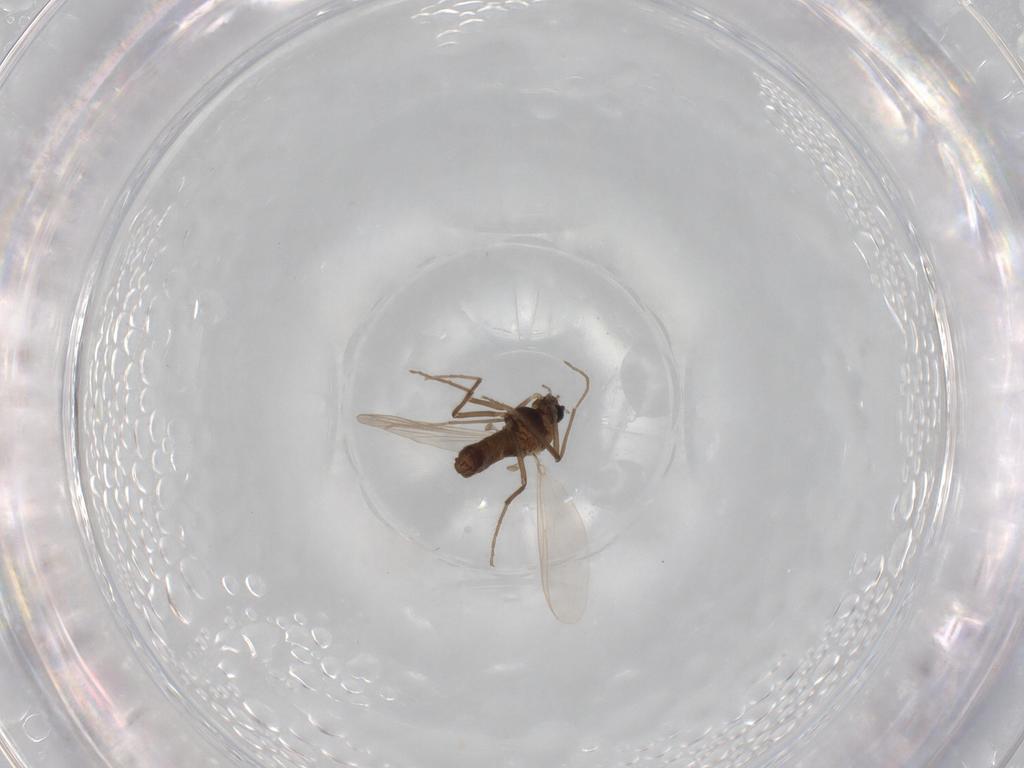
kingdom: Animalia
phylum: Arthropoda
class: Insecta
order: Diptera
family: Chironomidae
